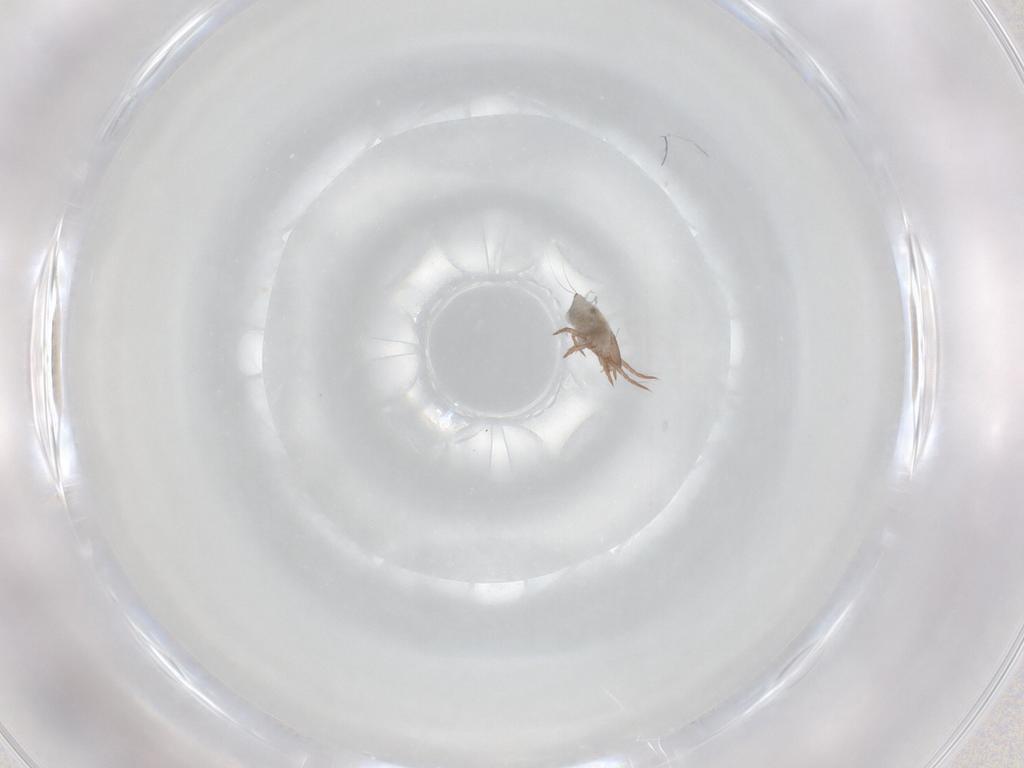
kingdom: Animalia
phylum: Arthropoda
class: Arachnida
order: Sarcoptiformes
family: Ceratoppiidae
